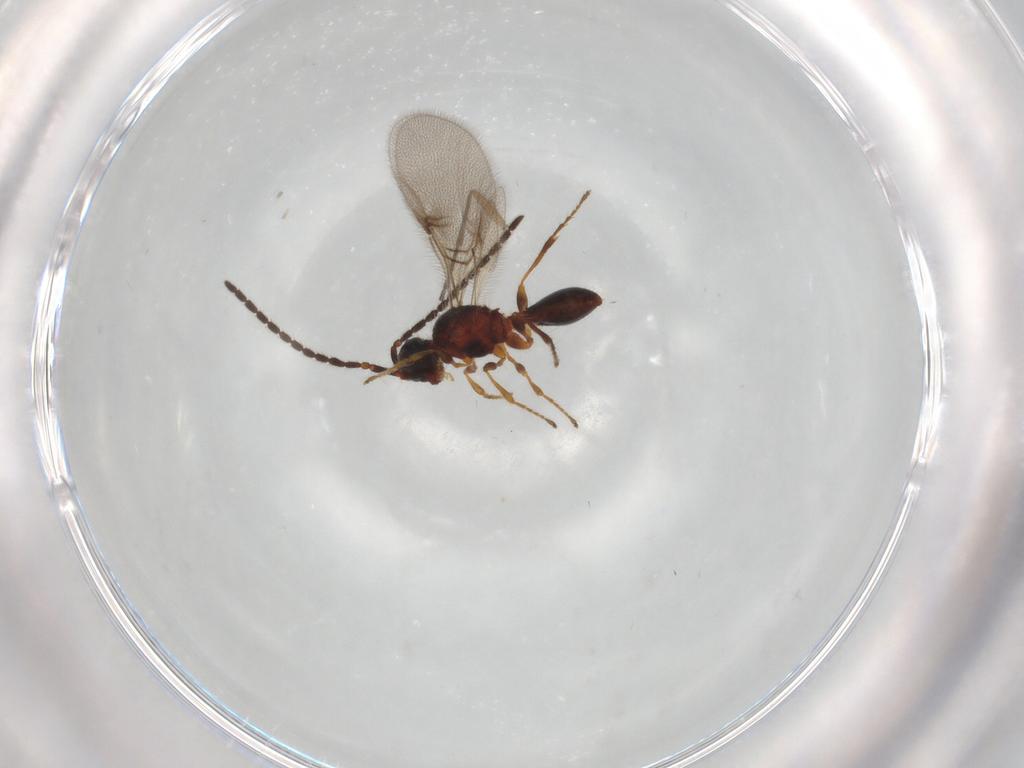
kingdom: Animalia
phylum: Arthropoda
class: Insecta
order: Hymenoptera
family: Diapriidae
